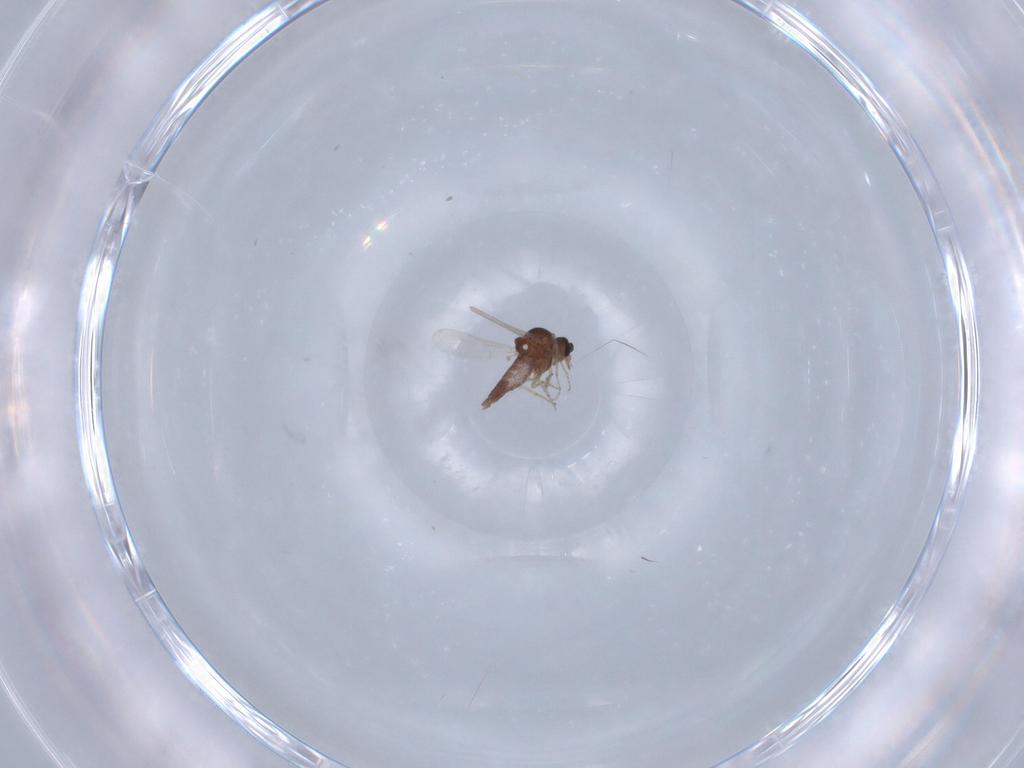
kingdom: Animalia
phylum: Arthropoda
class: Insecta
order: Diptera
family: Ceratopogonidae
